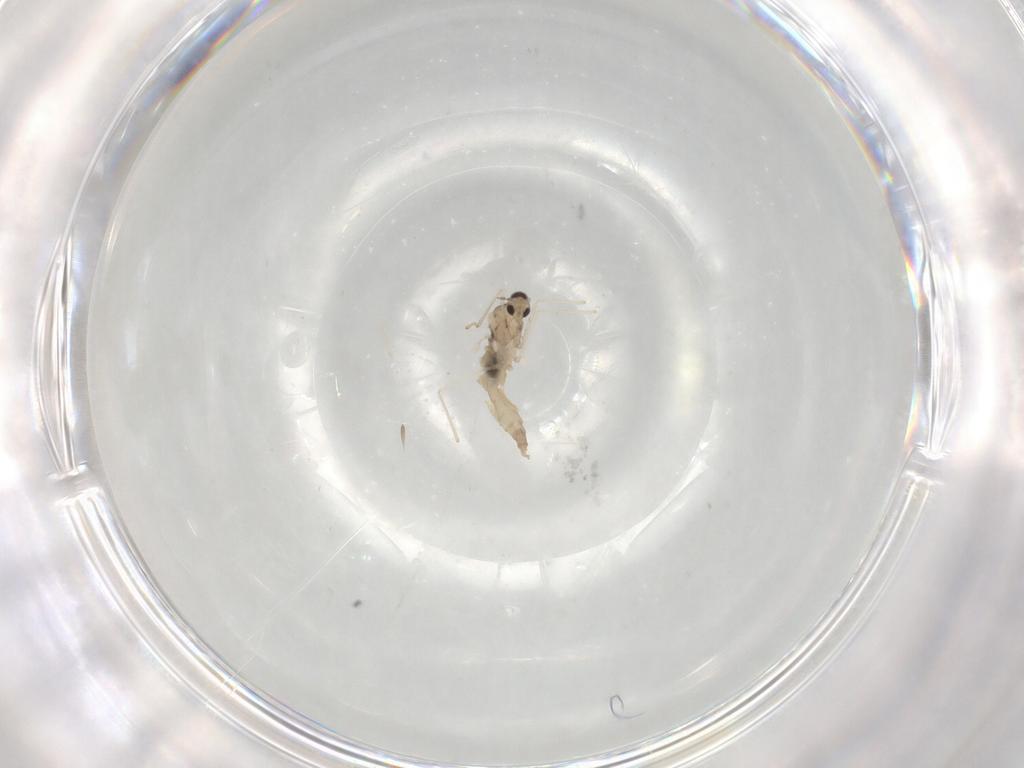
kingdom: Animalia
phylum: Arthropoda
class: Insecta
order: Diptera
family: Cecidomyiidae
